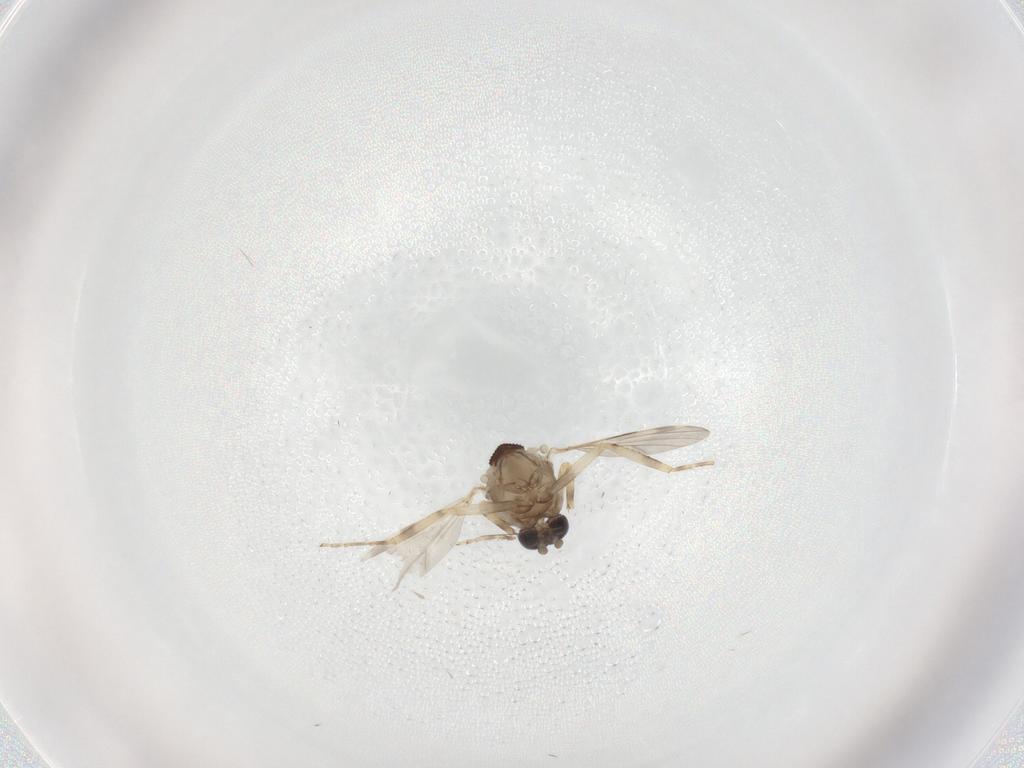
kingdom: Animalia
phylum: Arthropoda
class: Insecta
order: Diptera
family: Ceratopogonidae
